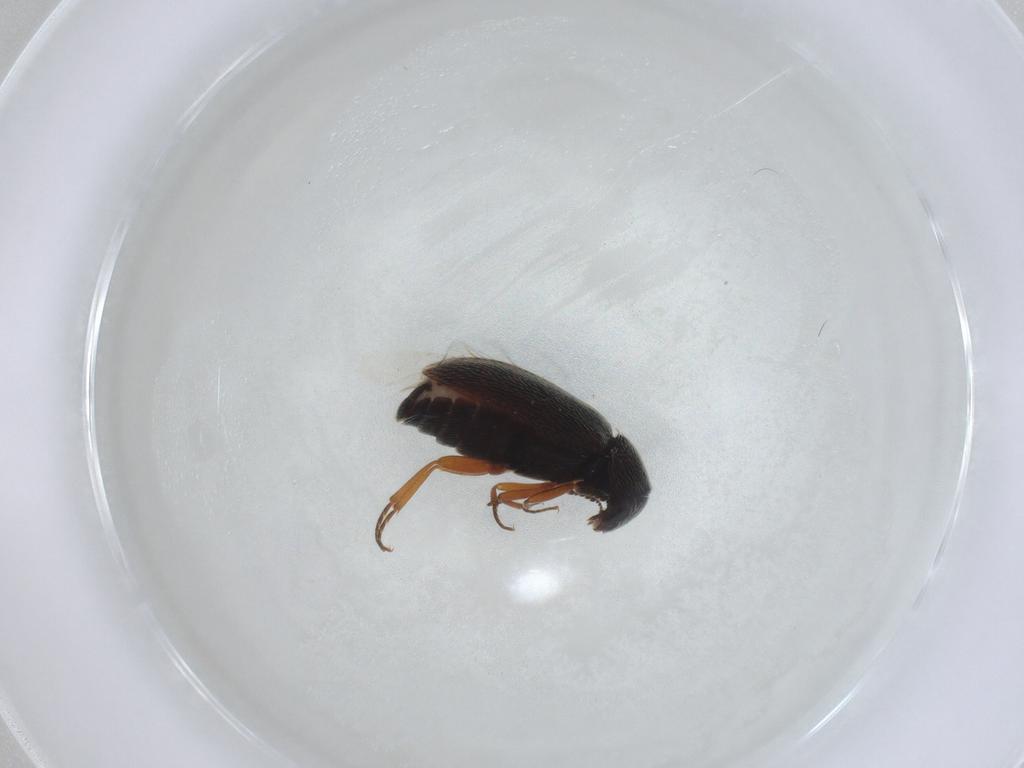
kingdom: Animalia
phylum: Arthropoda
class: Insecta
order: Coleoptera
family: Rhadalidae
